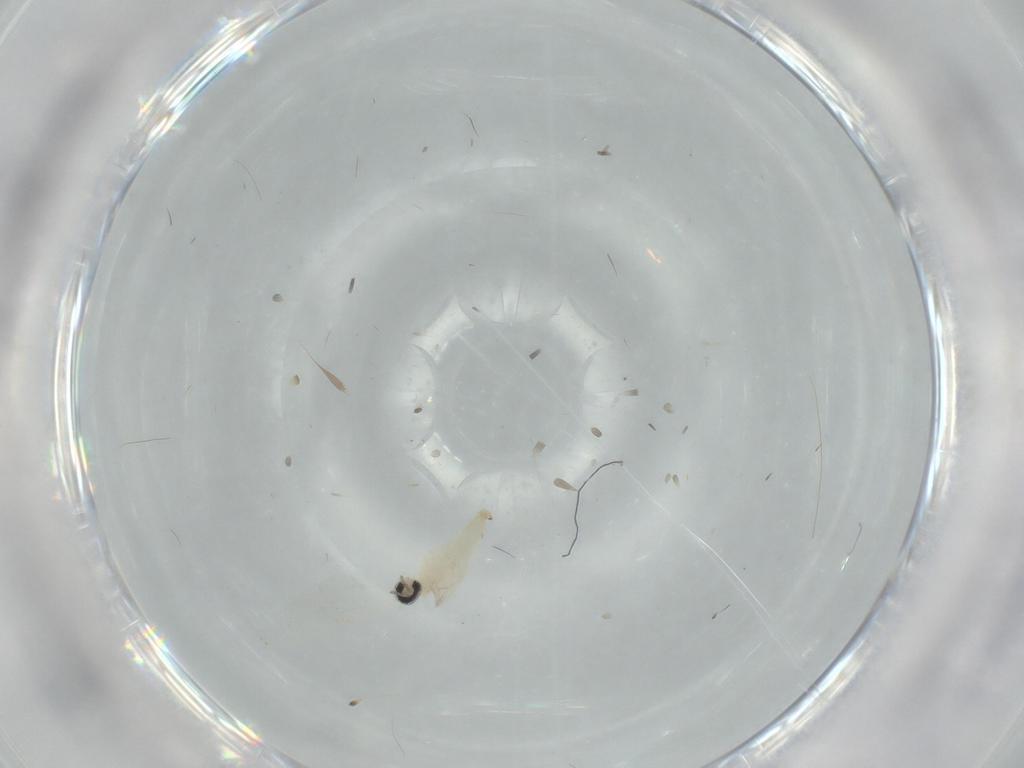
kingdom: Animalia
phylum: Arthropoda
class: Insecta
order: Diptera
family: Cecidomyiidae
